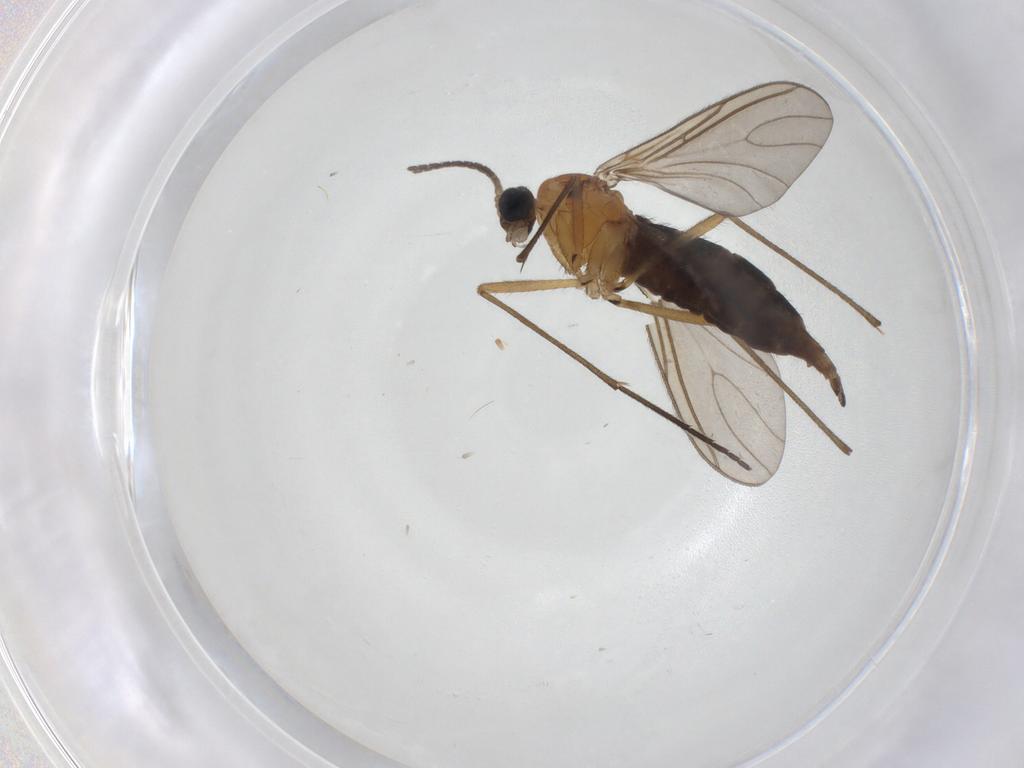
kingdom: Animalia
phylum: Arthropoda
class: Insecta
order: Diptera
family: Sciaridae
